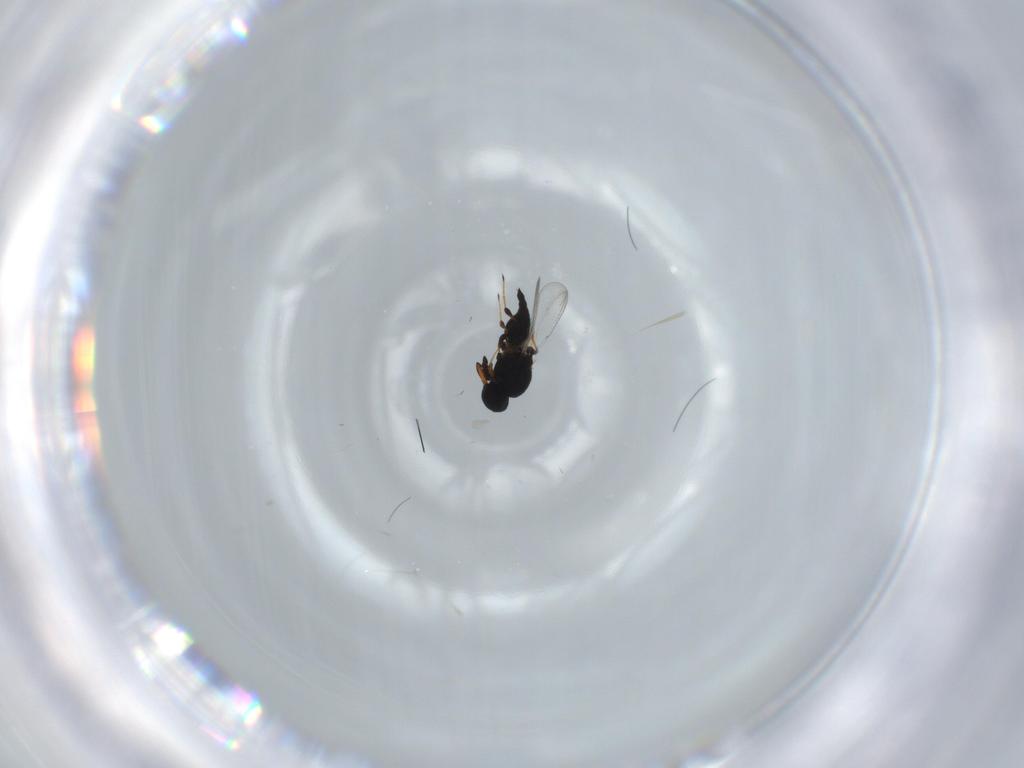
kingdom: Animalia
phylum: Arthropoda
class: Insecta
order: Hymenoptera
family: Platygastridae
